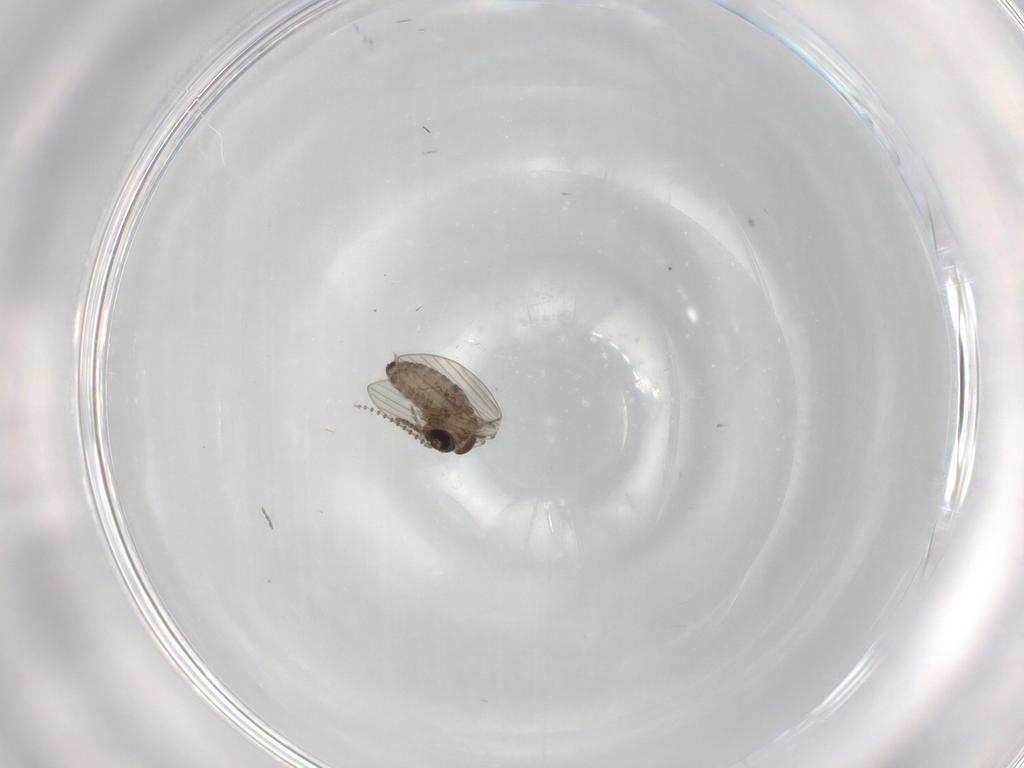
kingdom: Animalia
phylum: Arthropoda
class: Insecta
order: Diptera
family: Psychodidae
